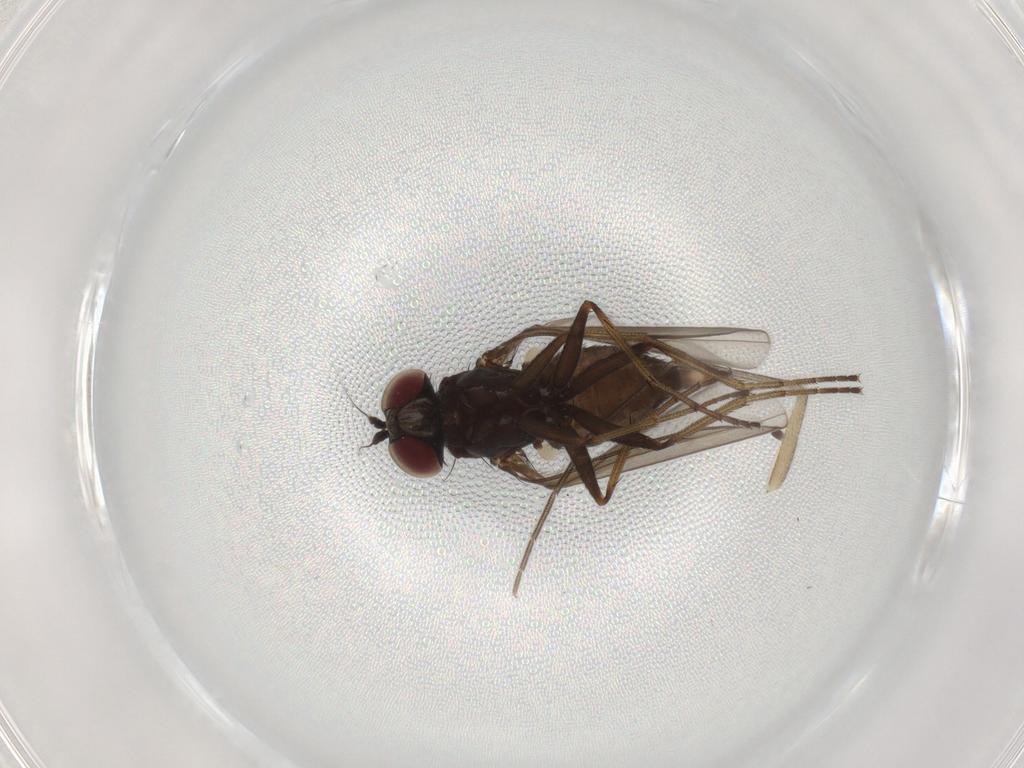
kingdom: Animalia
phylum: Arthropoda
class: Insecta
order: Diptera
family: Dolichopodidae
